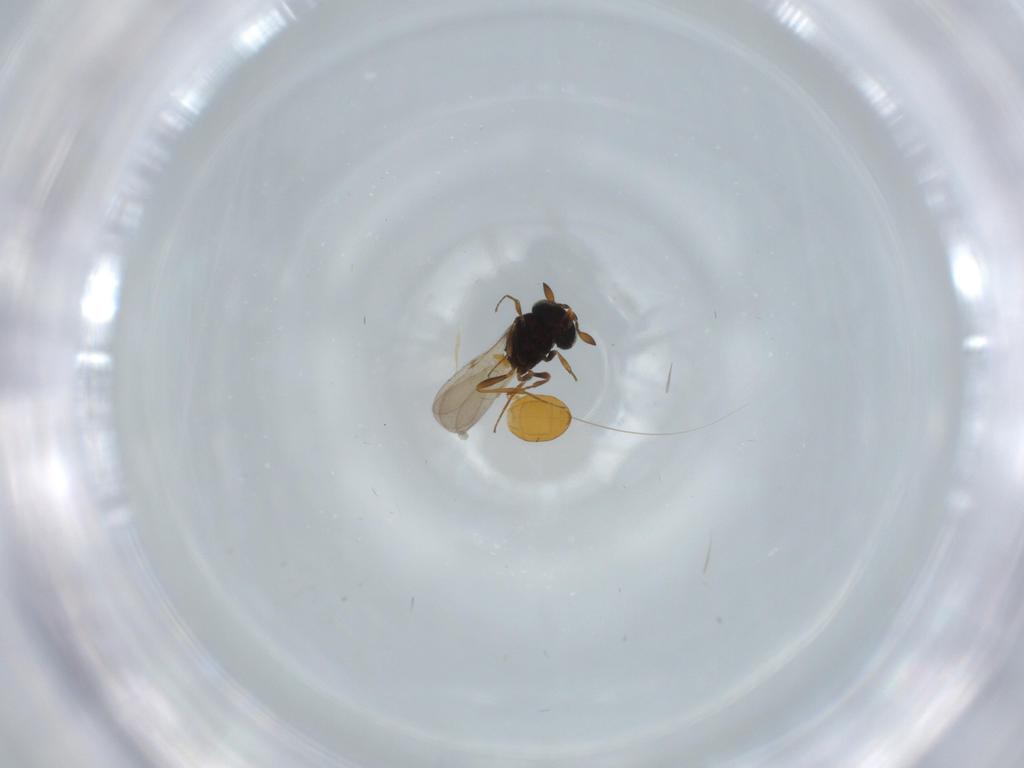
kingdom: Animalia
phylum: Arthropoda
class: Insecta
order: Hymenoptera
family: Scelionidae
